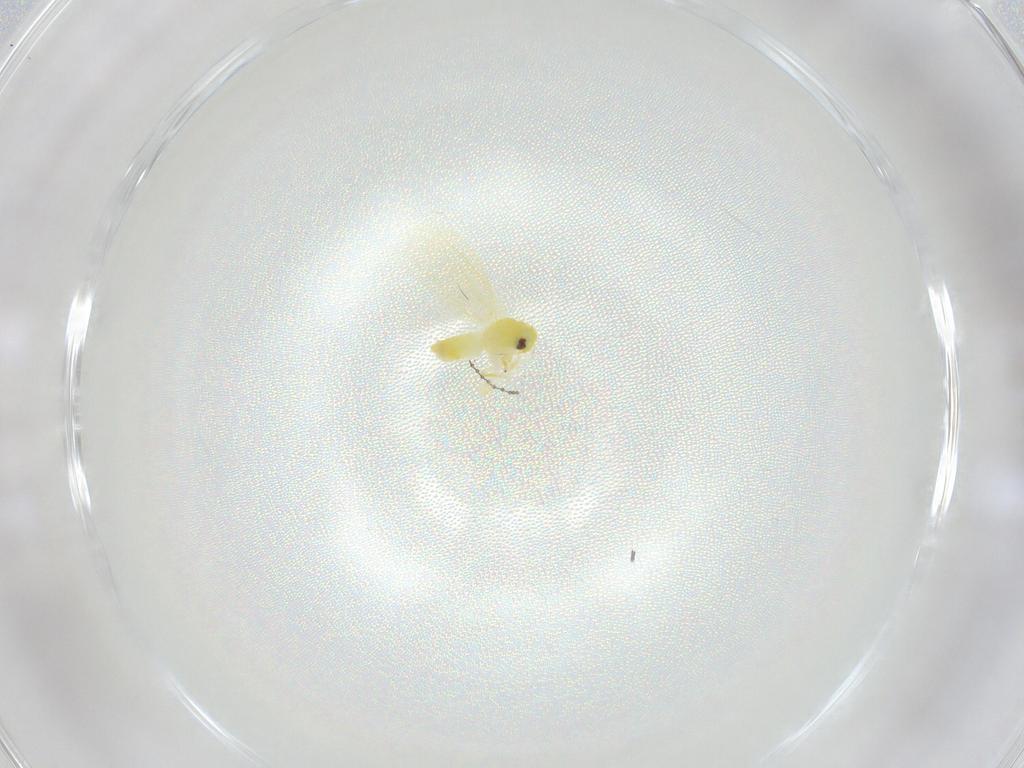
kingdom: Animalia
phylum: Arthropoda
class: Insecta
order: Hemiptera
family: Aleyrodidae
